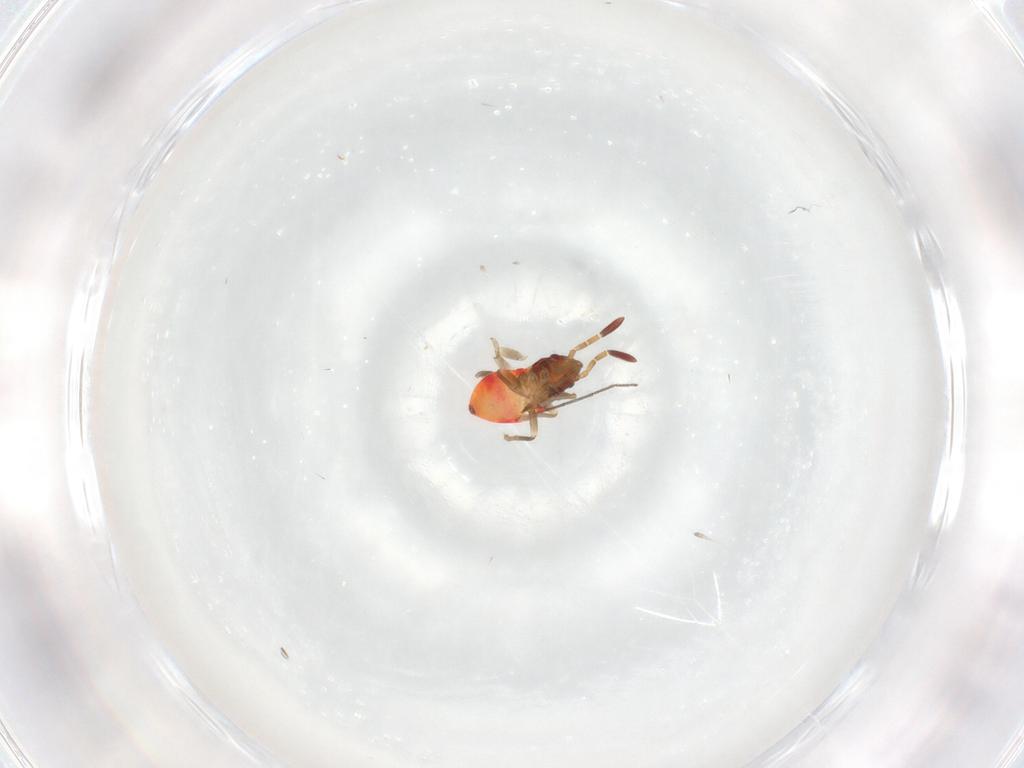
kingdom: Animalia
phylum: Arthropoda
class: Insecta
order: Hemiptera
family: Rhyparochromidae
